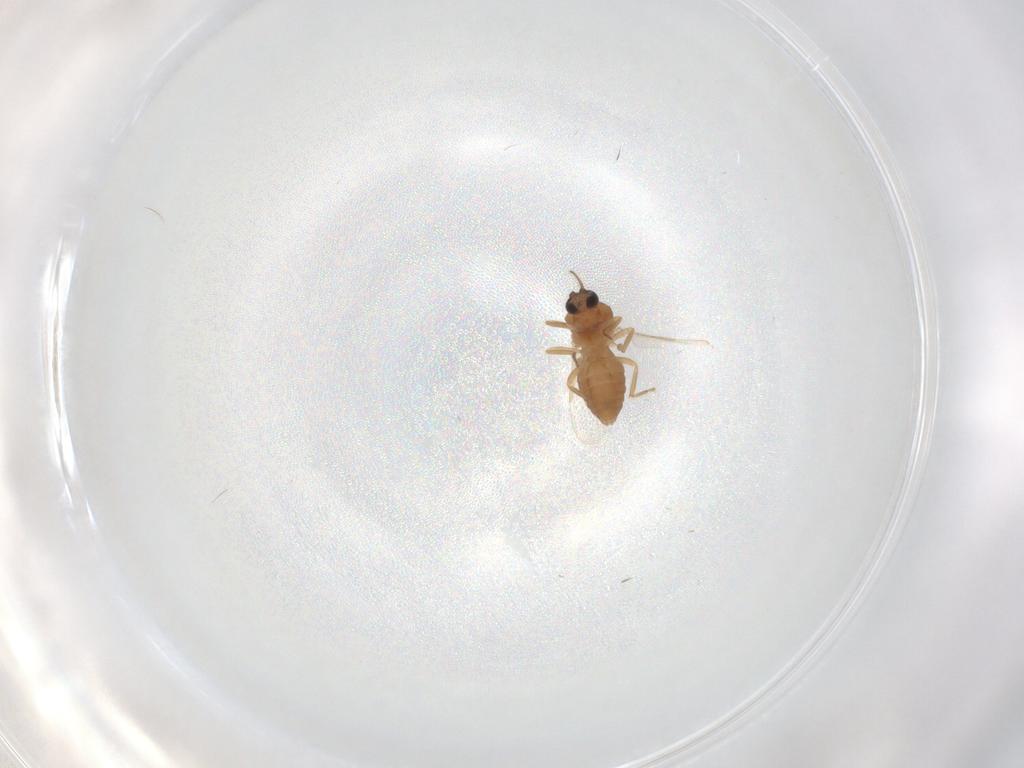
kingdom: Animalia
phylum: Arthropoda
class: Insecta
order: Diptera
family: Ceratopogonidae
